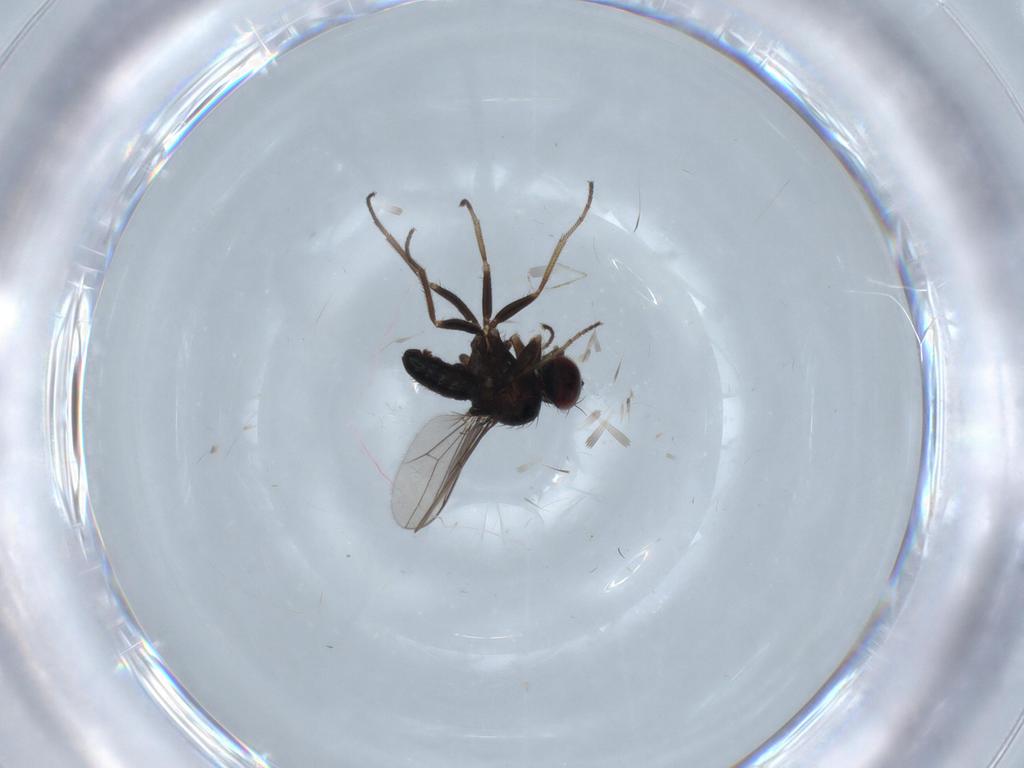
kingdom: Animalia
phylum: Arthropoda
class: Insecta
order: Diptera
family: Dolichopodidae
